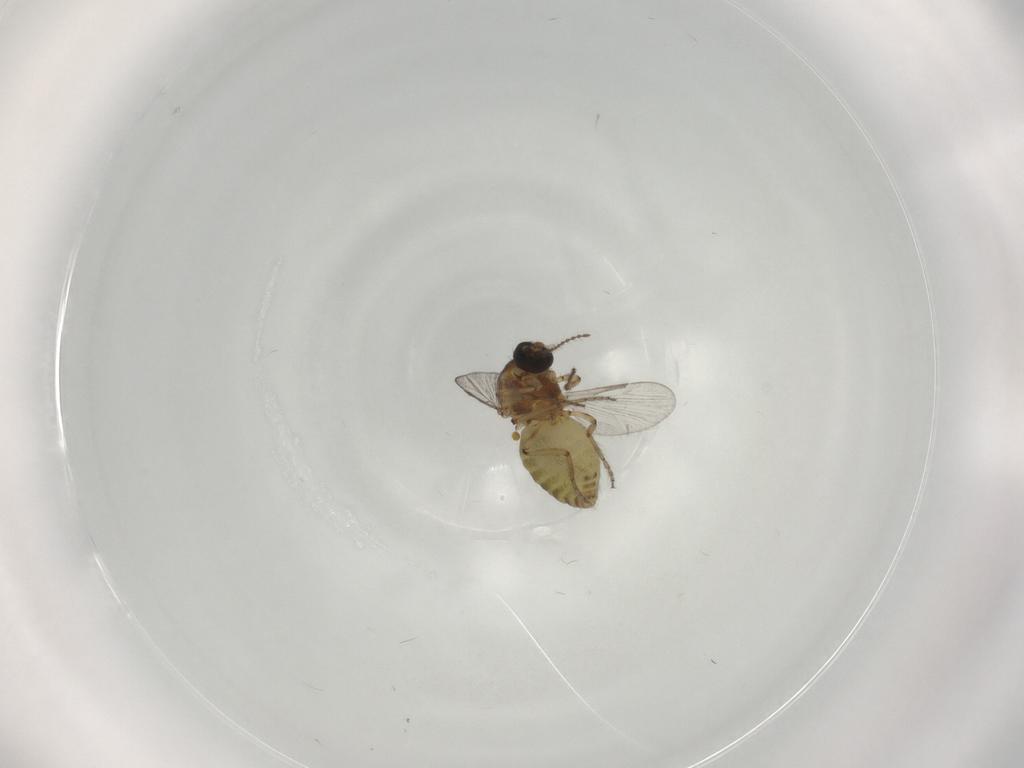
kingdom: Animalia
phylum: Arthropoda
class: Insecta
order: Diptera
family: Ceratopogonidae
